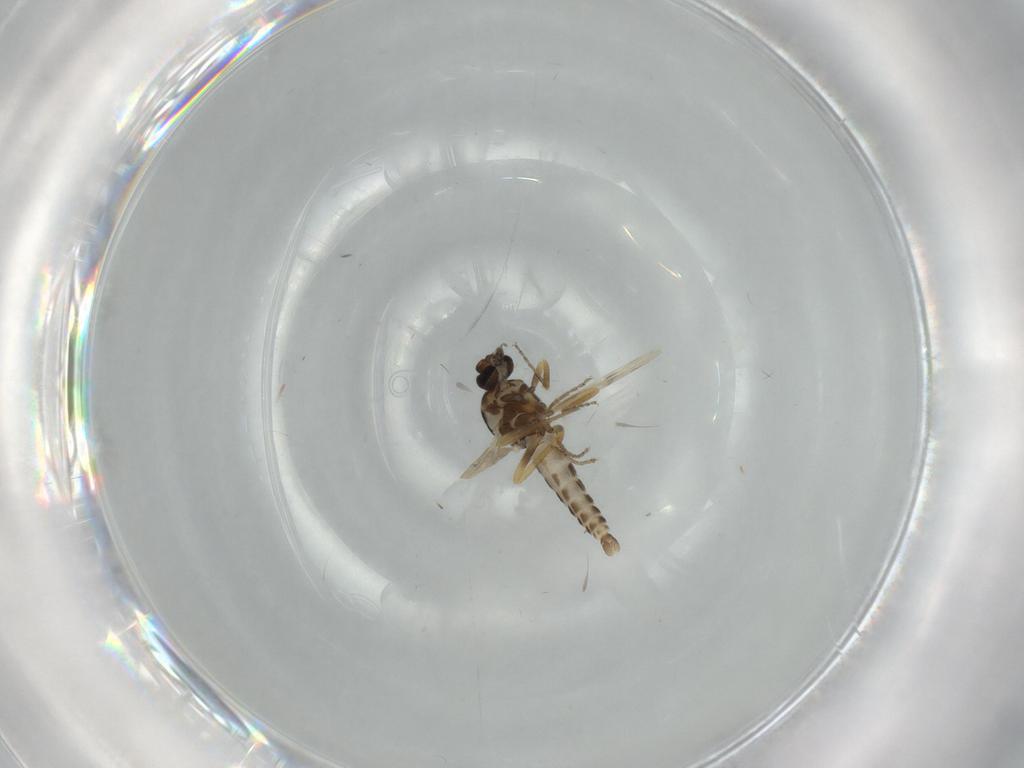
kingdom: Animalia
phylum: Arthropoda
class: Insecta
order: Diptera
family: Ceratopogonidae
